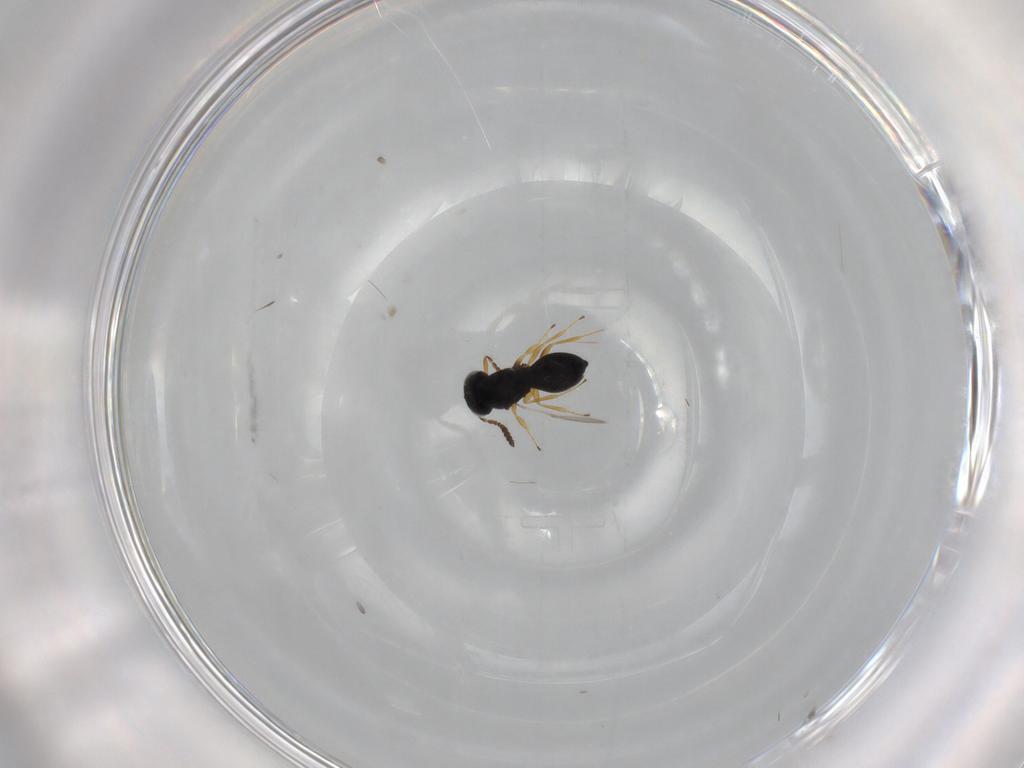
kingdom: Animalia
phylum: Arthropoda
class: Insecta
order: Hymenoptera
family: Scelionidae
